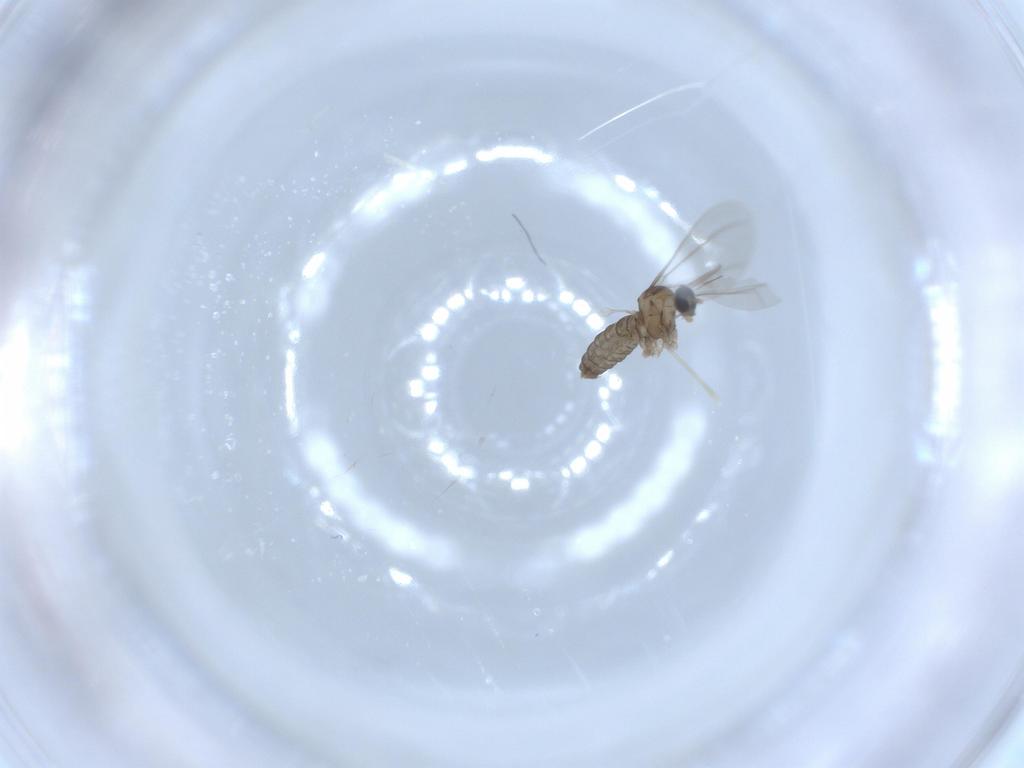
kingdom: Animalia
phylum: Arthropoda
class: Insecta
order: Diptera
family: Cecidomyiidae
